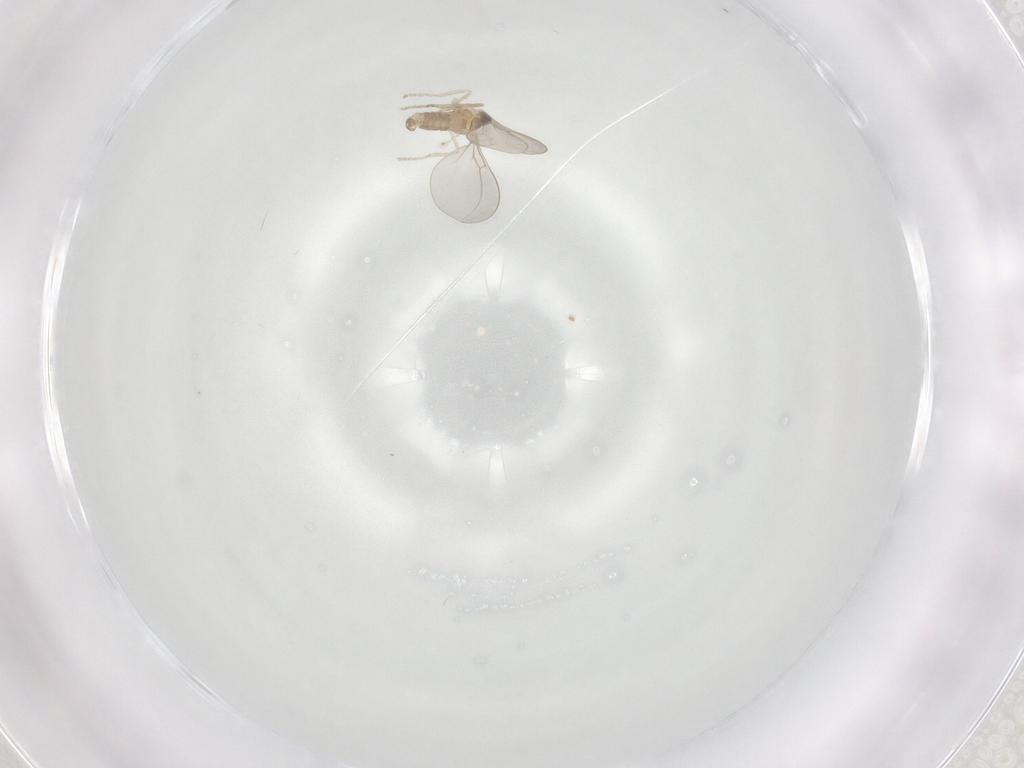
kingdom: Animalia
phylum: Arthropoda
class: Insecta
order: Diptera
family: Cecidomyiidae
